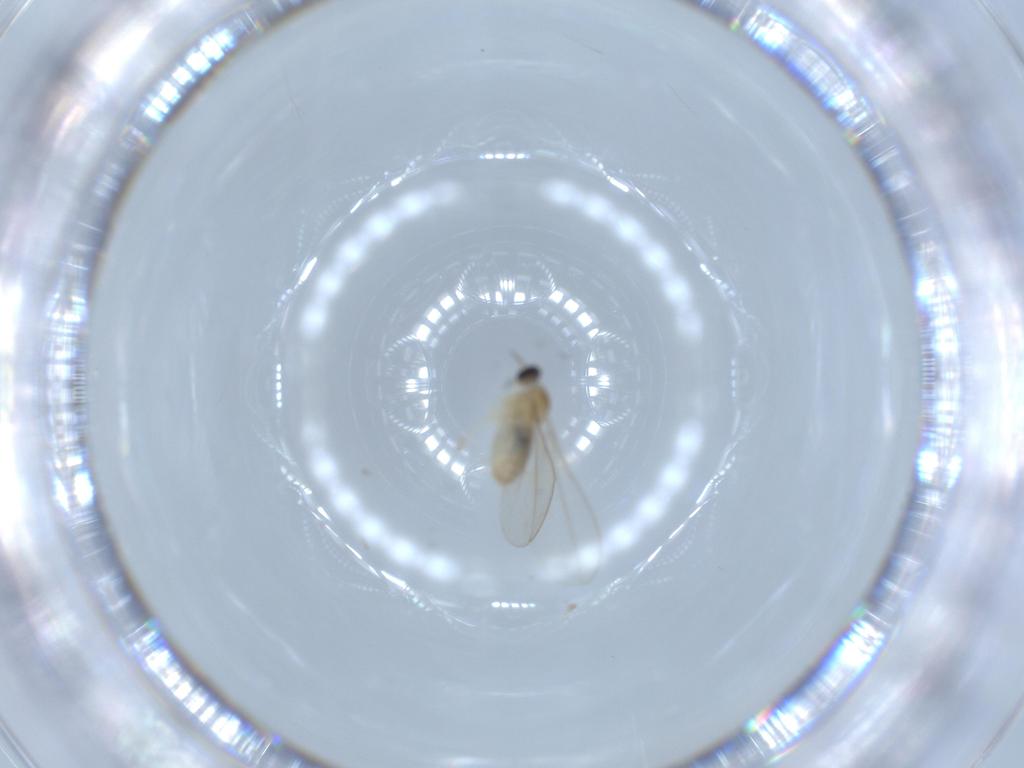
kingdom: Animalia
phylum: Arthropoda
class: Insecta
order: Diptera
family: Cecidomyiidae
